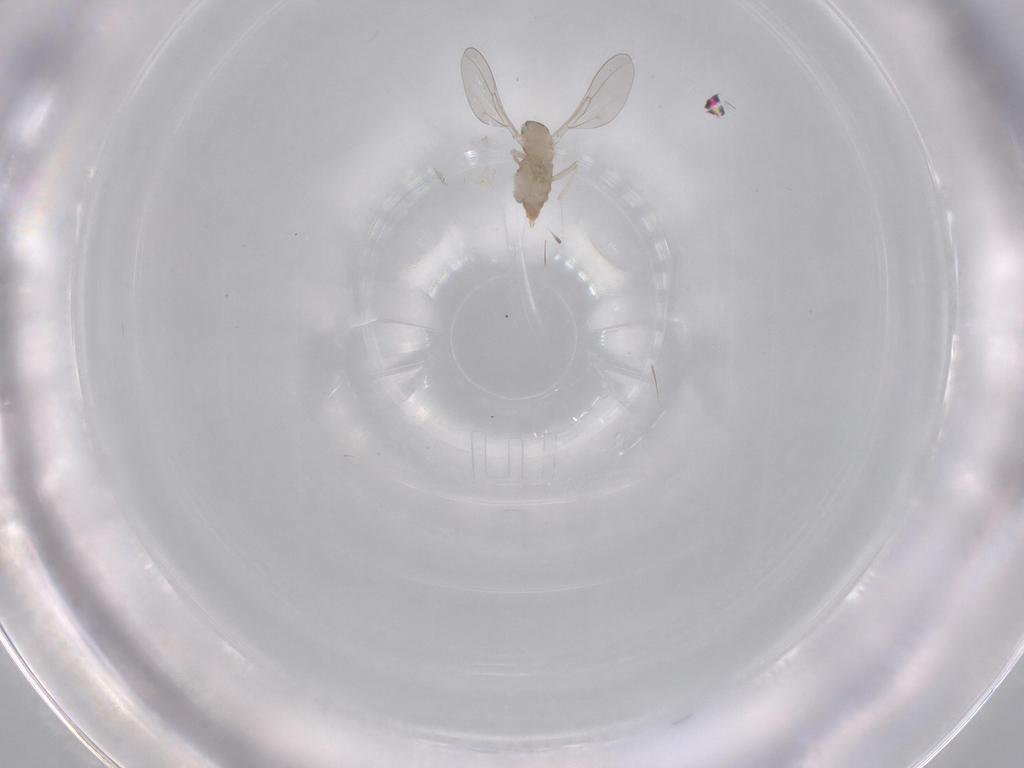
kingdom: Animalia
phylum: Arthropoda
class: Insecta
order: Diptera
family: Cecidomyiidae
